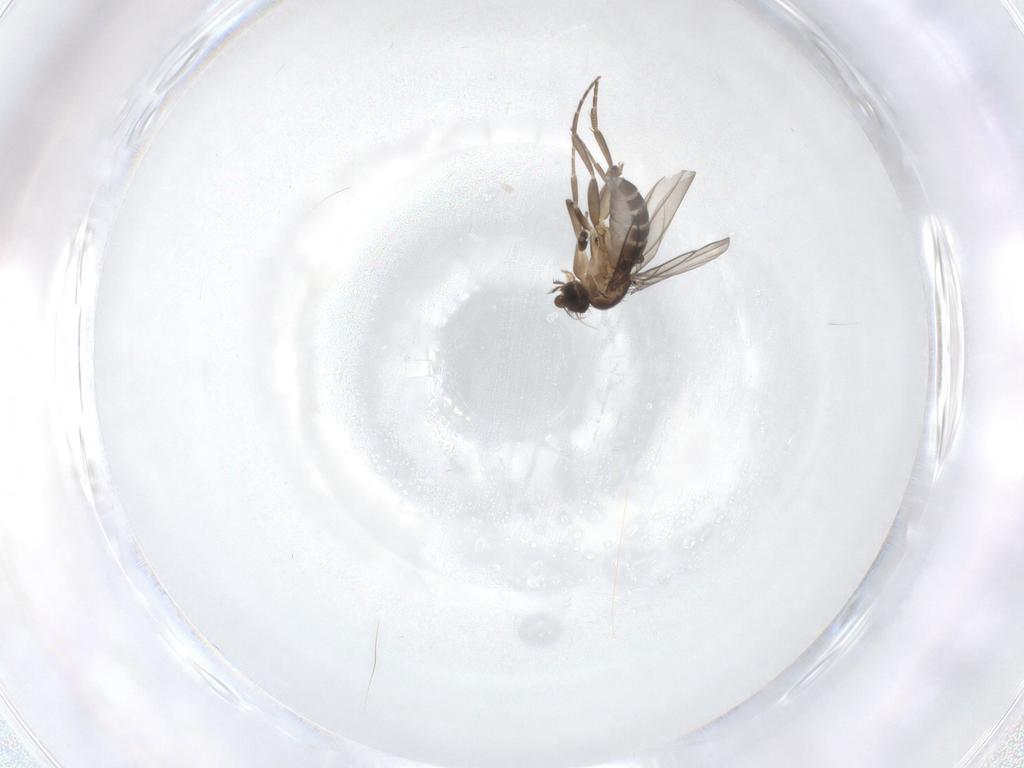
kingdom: Animalia
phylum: Arthropoda
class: Insecta
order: Diptera
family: Phoridae
